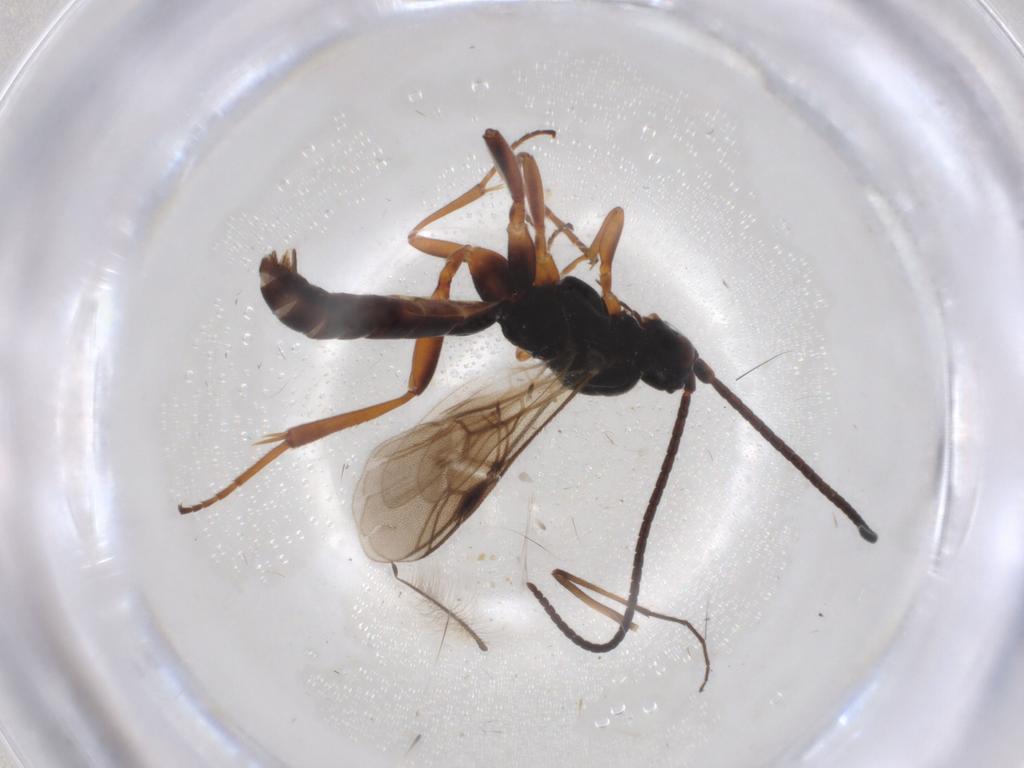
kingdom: Animalia
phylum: Arthropoda
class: Insecta
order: Hymenoptera
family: Braconidae
